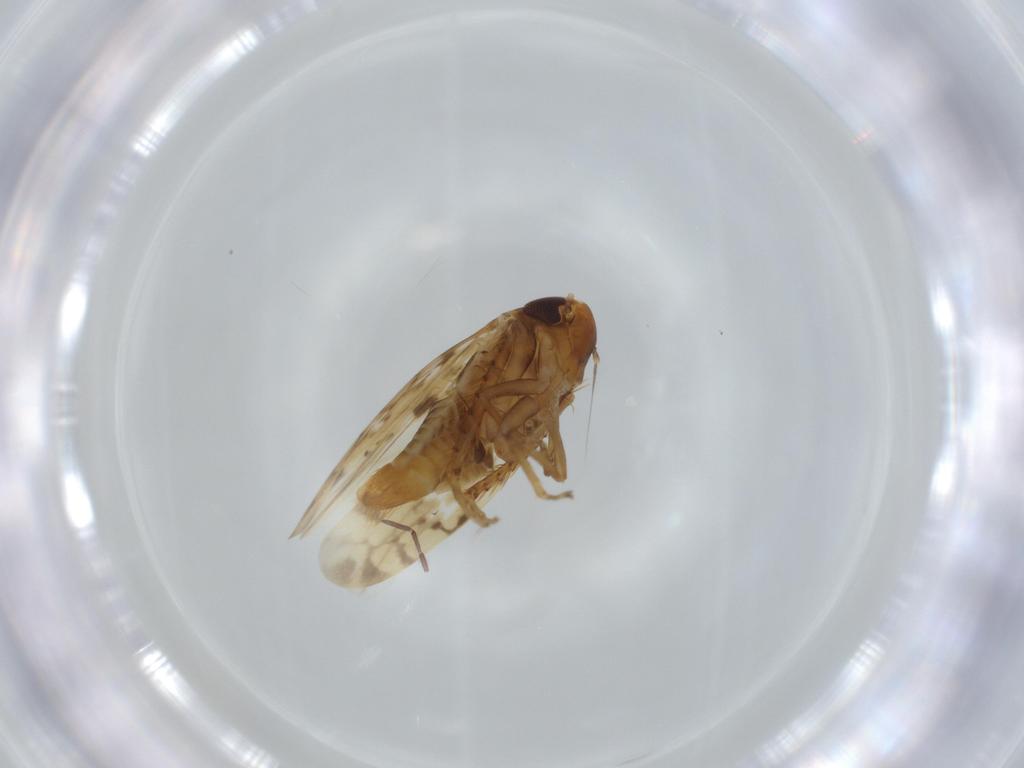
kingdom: Animalia
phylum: Arthropoda
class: Insecta
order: Hemiptera
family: Cicadellidae
